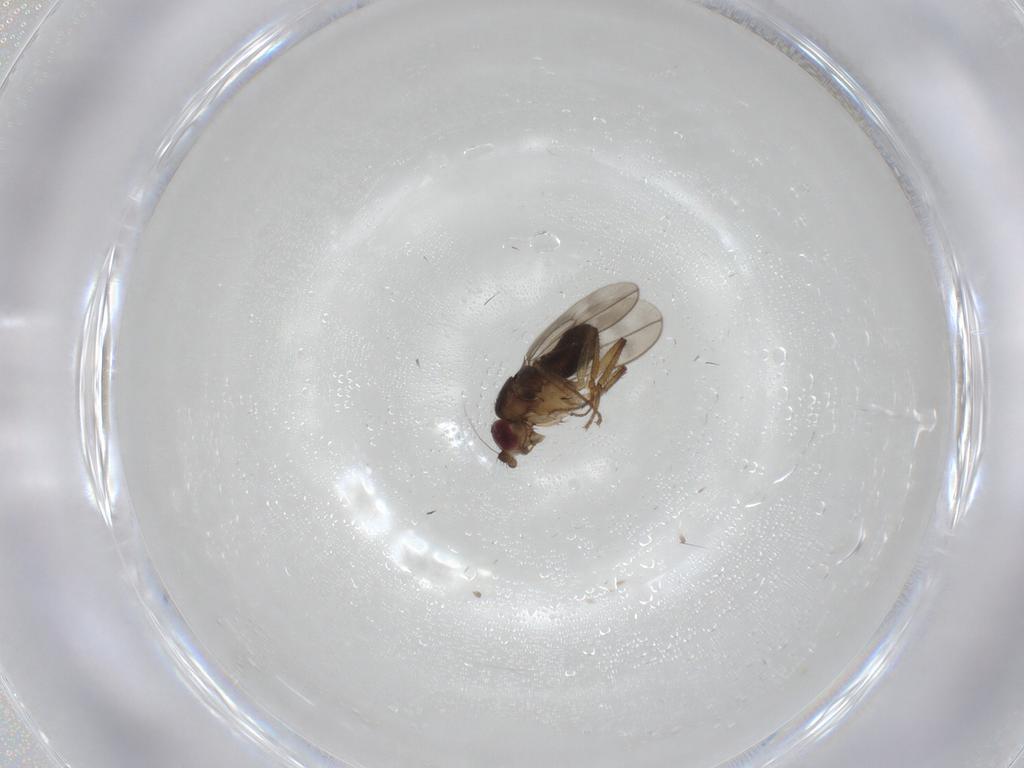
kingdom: Animalia
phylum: Arthropoda
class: Insecta
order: Diptera
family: Sphaeroceridae
